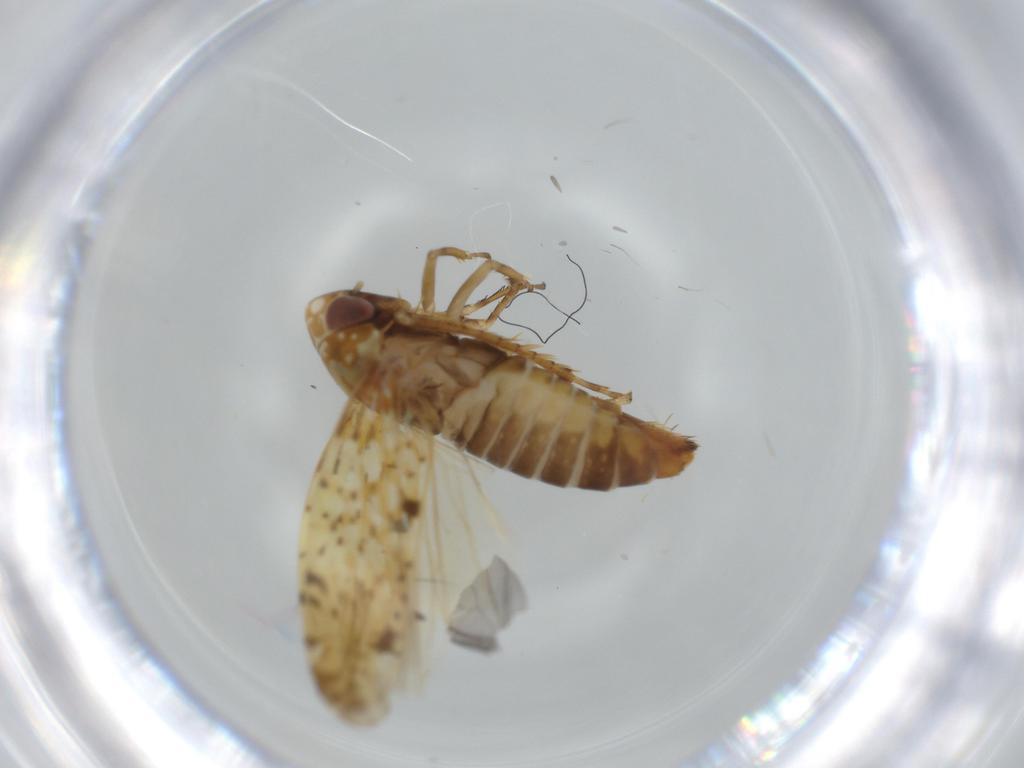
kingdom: Animalia
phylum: Arthropoda
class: Insecta
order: Hemiptera
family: Cicadellidae
